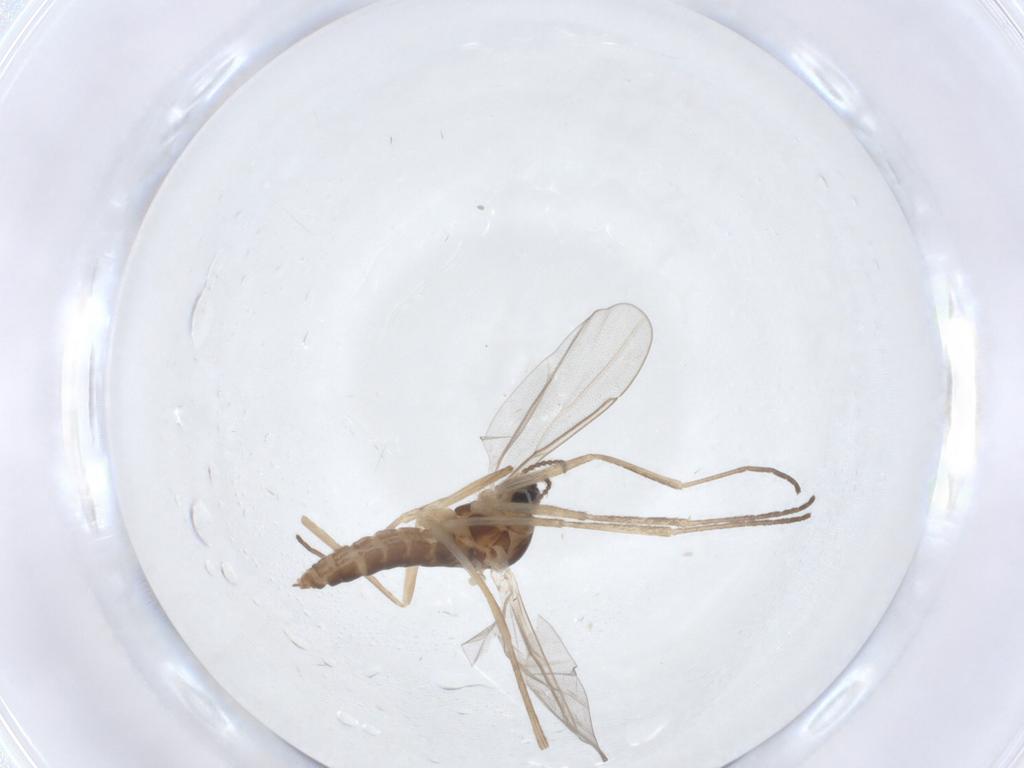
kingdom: Animalia
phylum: Arthropoda
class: Insecta
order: Diptera
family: Cecidomyiidae
